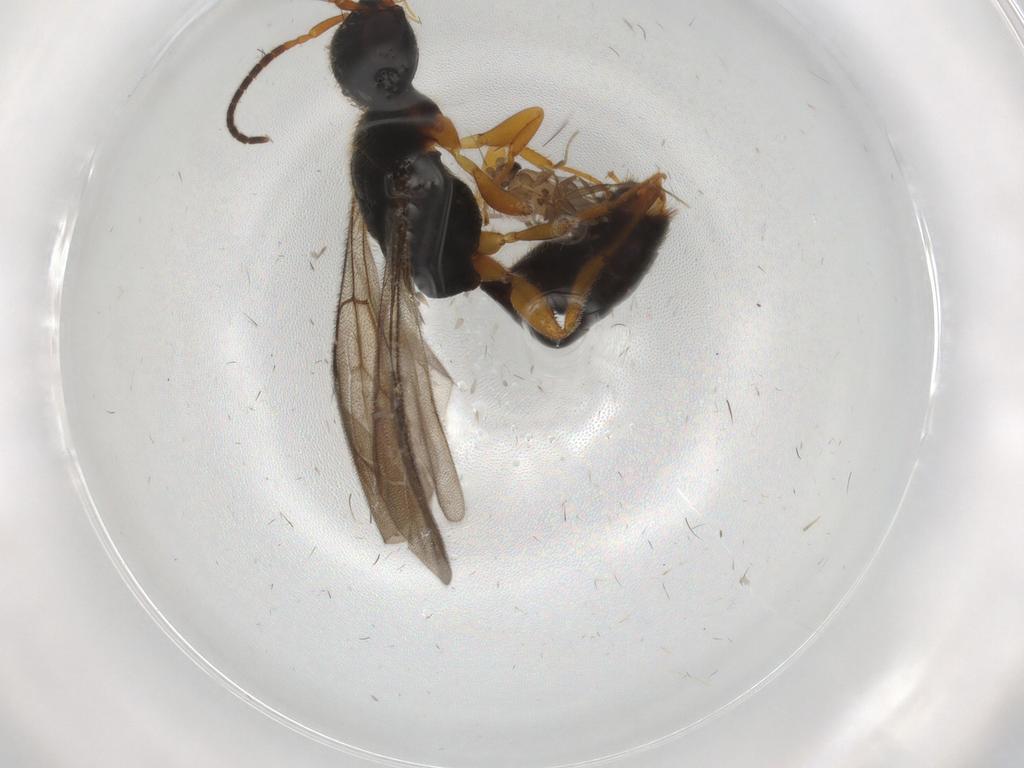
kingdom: Animalia
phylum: Arthropoda
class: Insecta
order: Hymenoptera
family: Bethylidae
